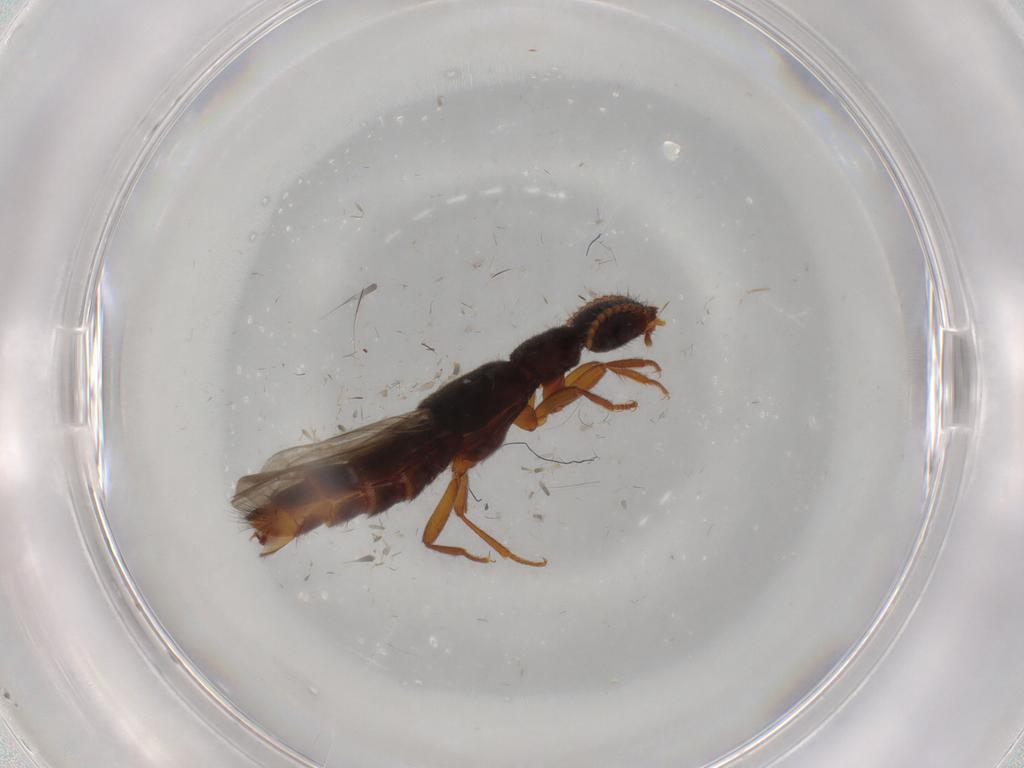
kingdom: Animalia
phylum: Arthropoda
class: Insecta
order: Coleoptera
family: Staphylinidae
